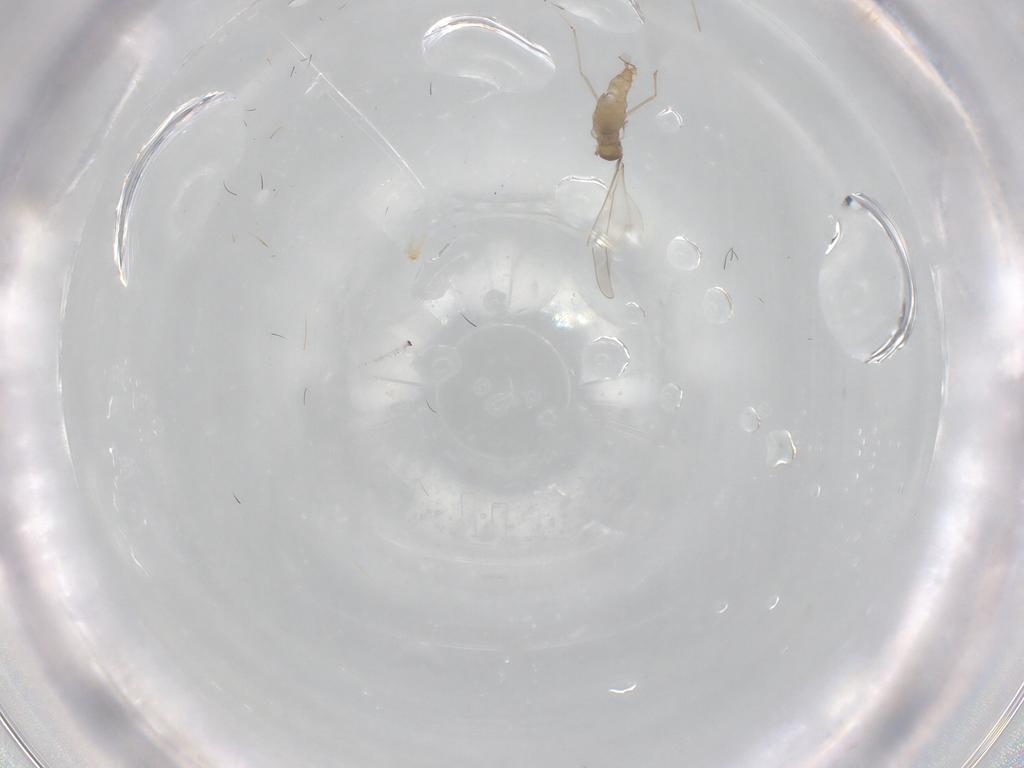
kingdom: Animalia
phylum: Arthropoda
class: Insecta
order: Diptera
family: Cecidomyiidae
